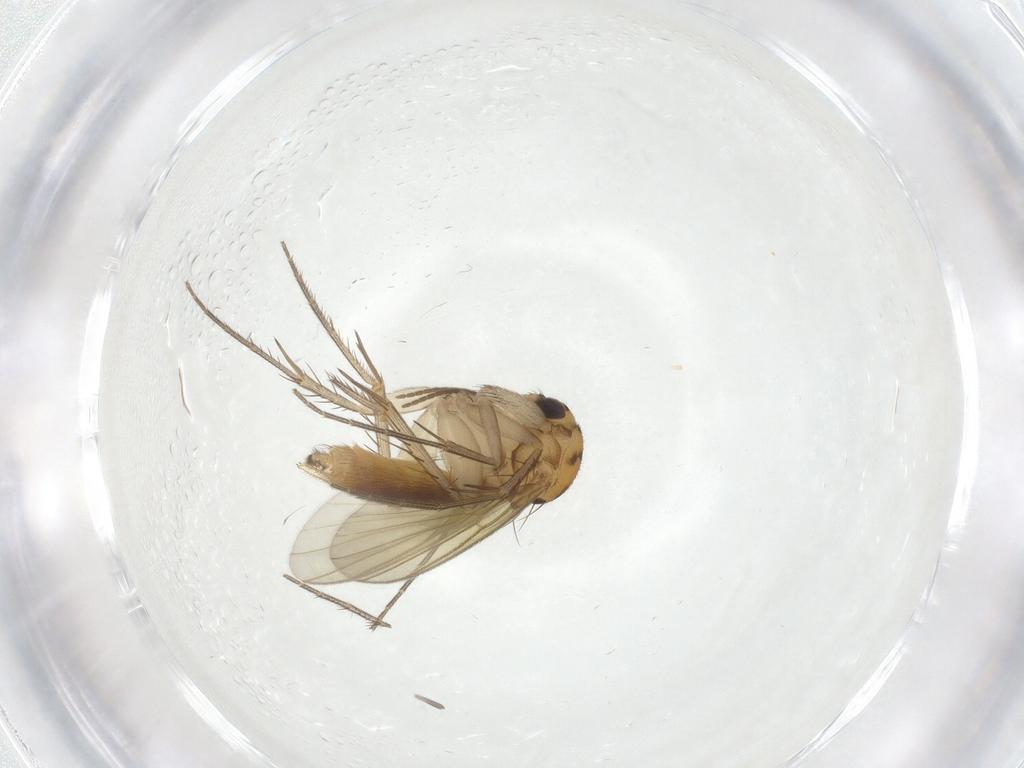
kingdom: Animalia
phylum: Arthropoda
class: Insecta
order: Diptera
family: Mycetophilidae
